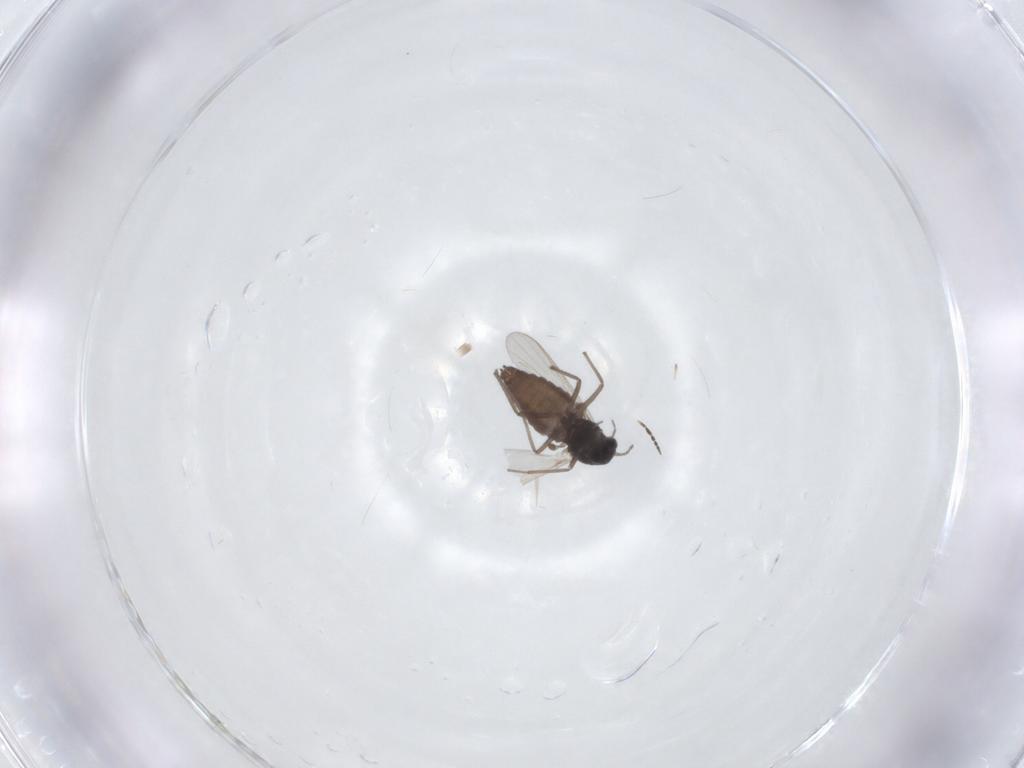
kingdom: Animalia
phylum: Arthropoda
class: Insecta
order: Diptera
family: Chironomidae
